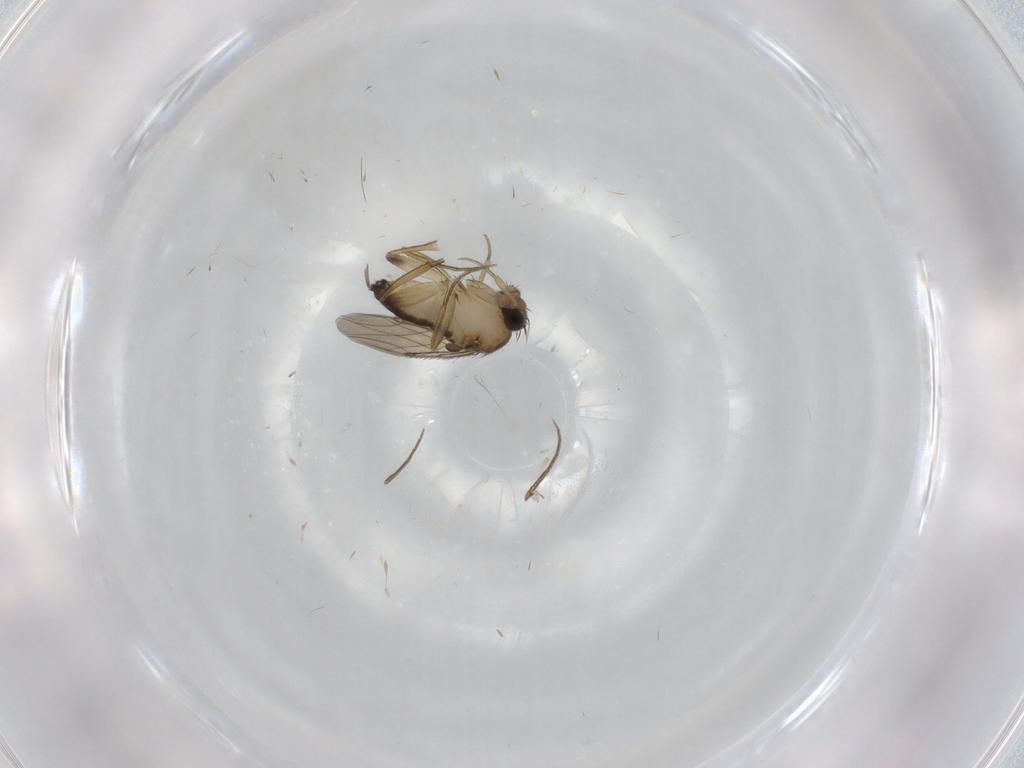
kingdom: Animalia
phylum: Arthropoda
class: Insecta
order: Diptera
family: Phoridae
